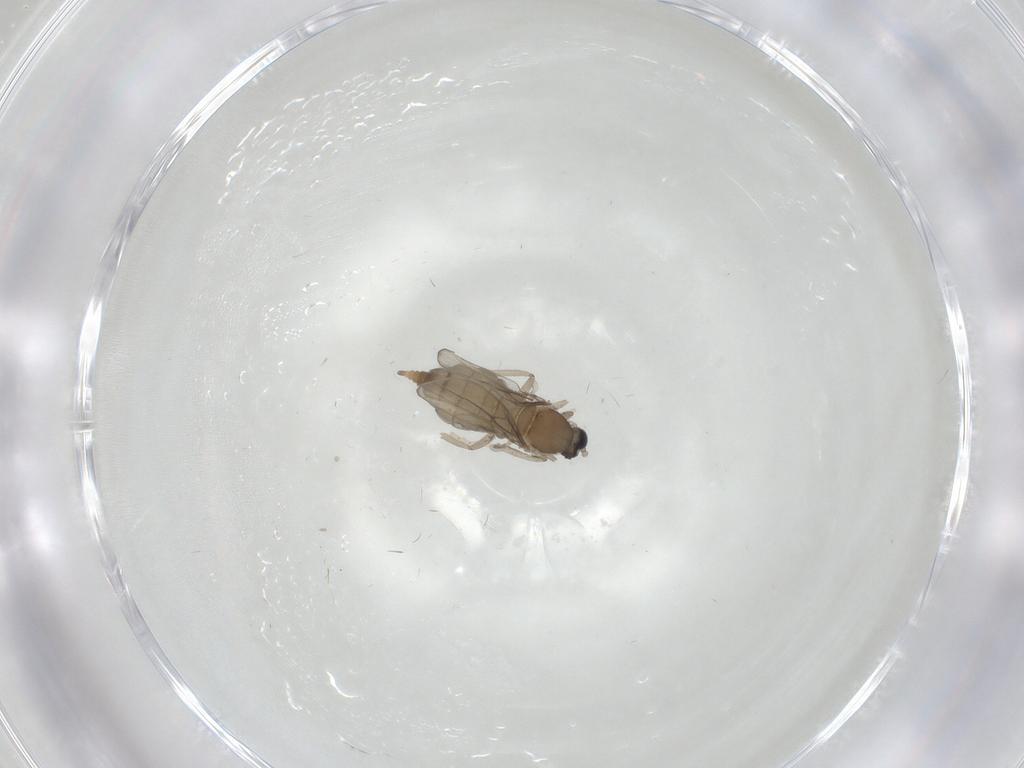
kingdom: Animalia
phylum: Arthropoda
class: Insecta
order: Diptera
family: Cecidomyiidae
